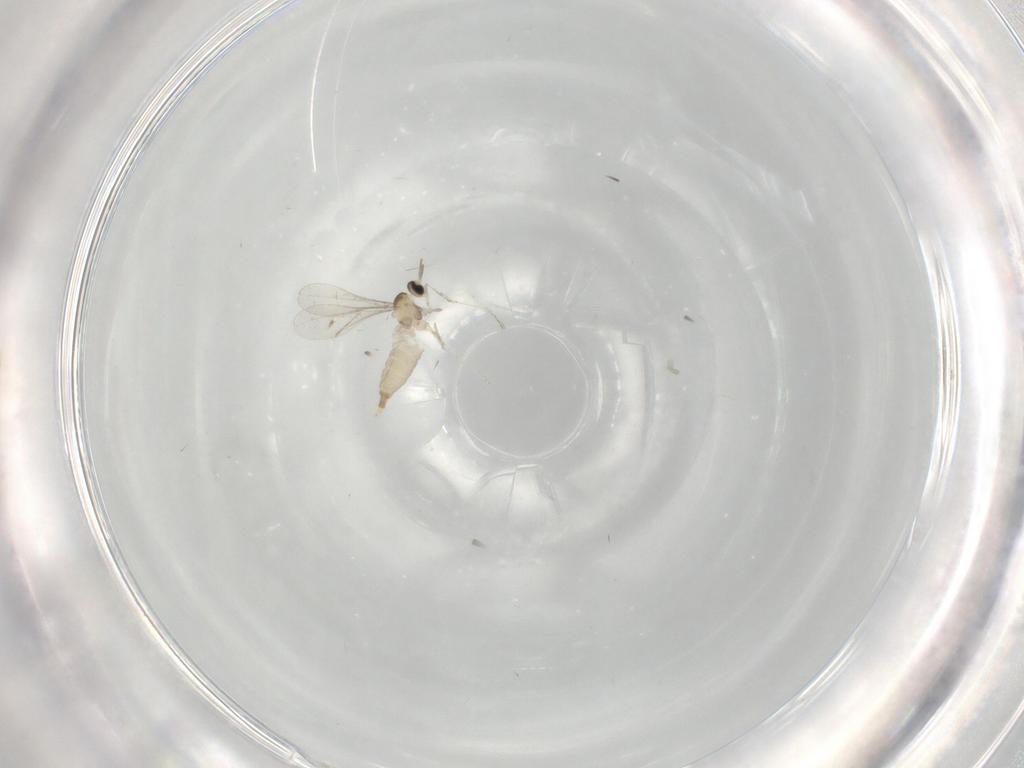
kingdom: Animalia
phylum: Arthropoda
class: Insecta
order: Diptera
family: Cecidomyiidae
